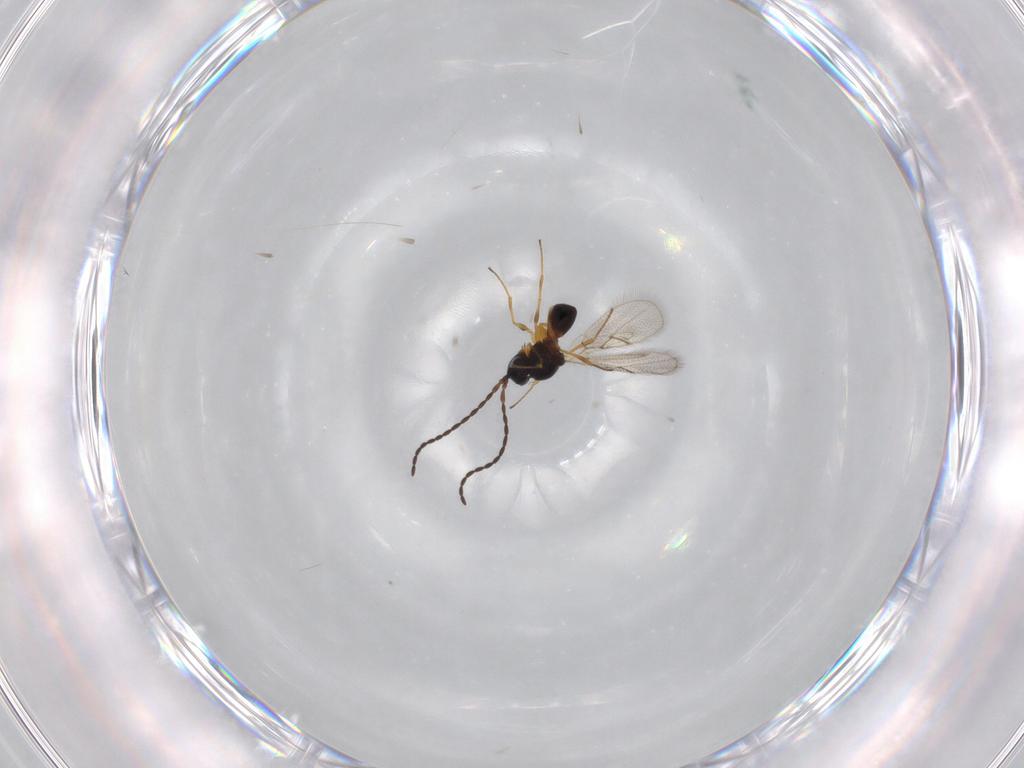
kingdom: Animalia
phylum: Arthropoda
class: Insecta
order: Hymenoptera
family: Figitidae
